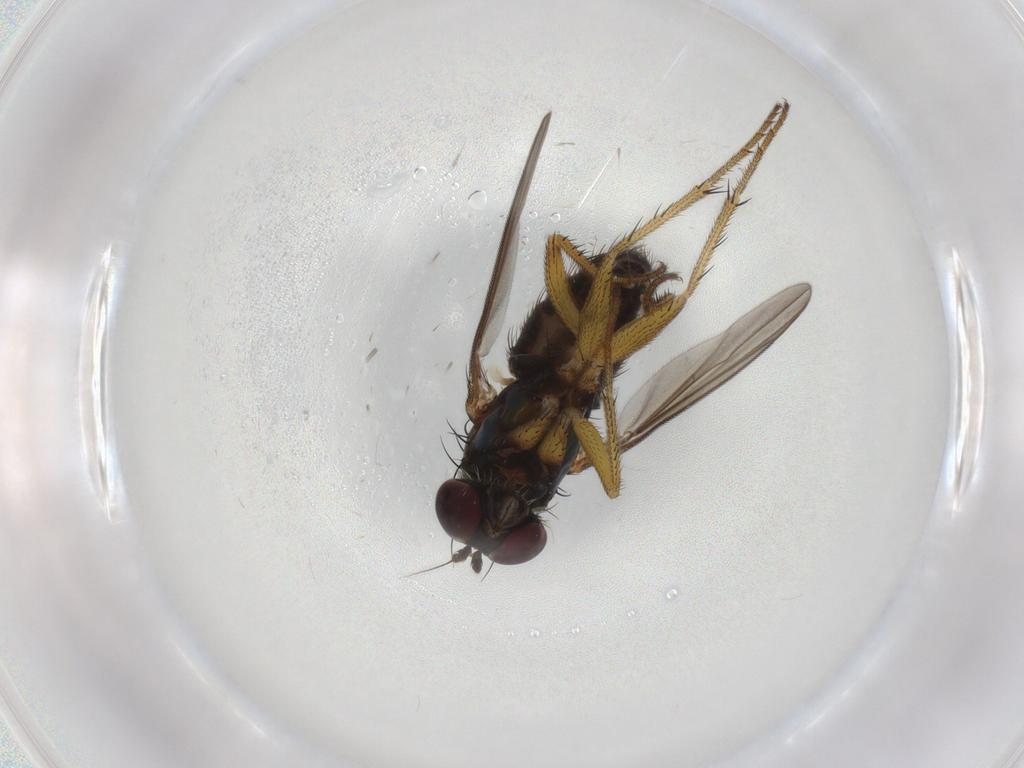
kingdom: Animalia
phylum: Arthropoda
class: Insecta
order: Diptera
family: Dolichopodidae
